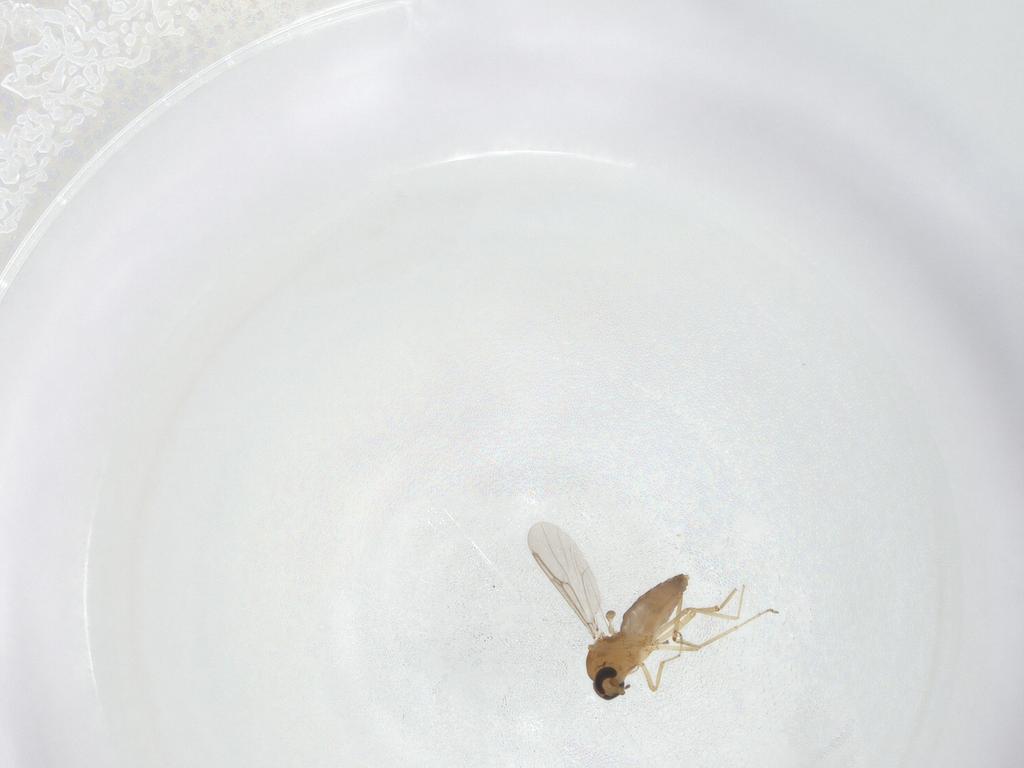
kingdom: Animalia
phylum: Arthropoda
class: Insecta
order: Diptera
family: Ceratopogonidae
